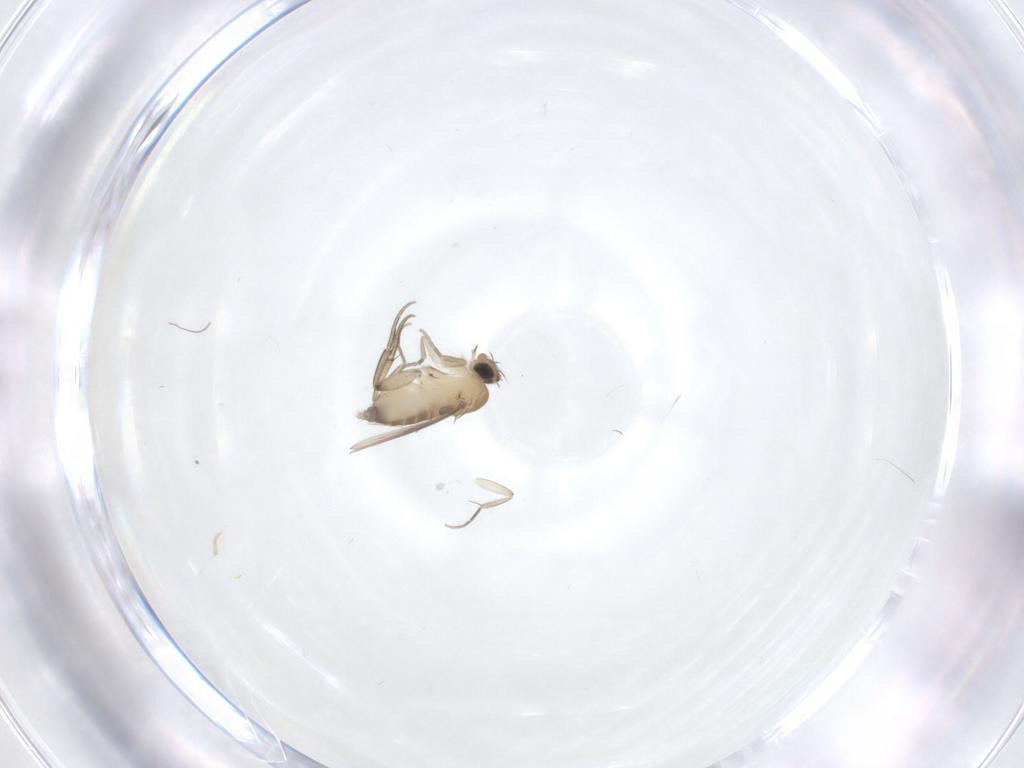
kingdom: Animalia
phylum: Arthropoda
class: Insecta
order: Diptera
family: Phoridae
